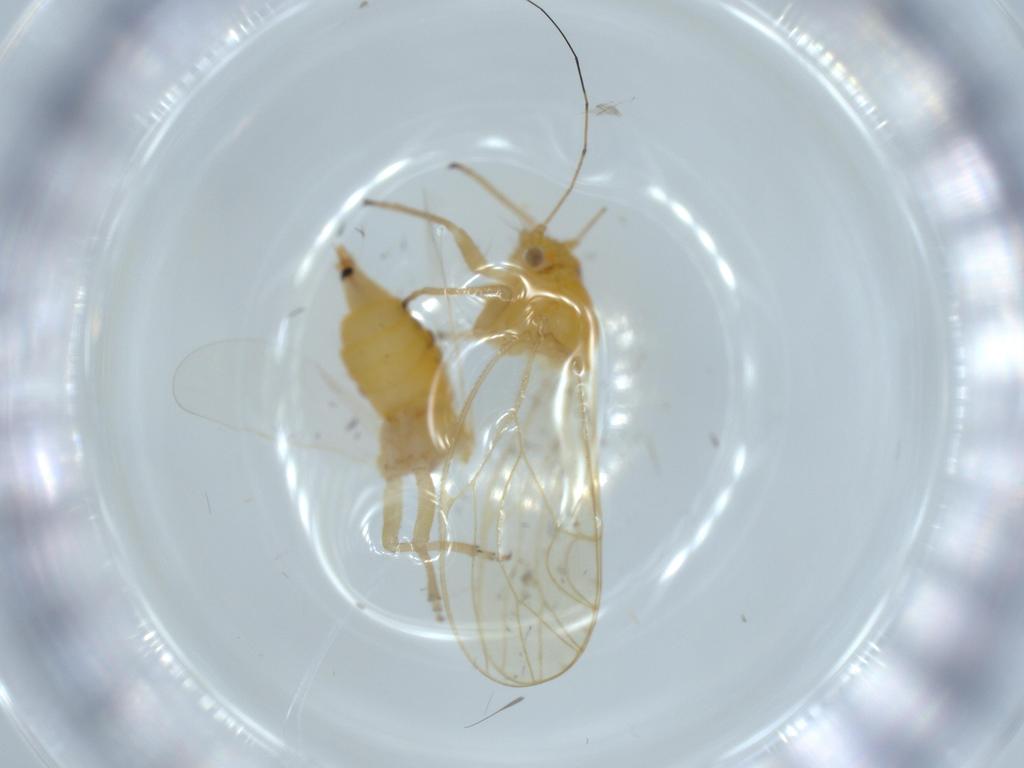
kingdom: Animalia
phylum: Arthropoda
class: Insecta
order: Hemiptera
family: Psyllidae
